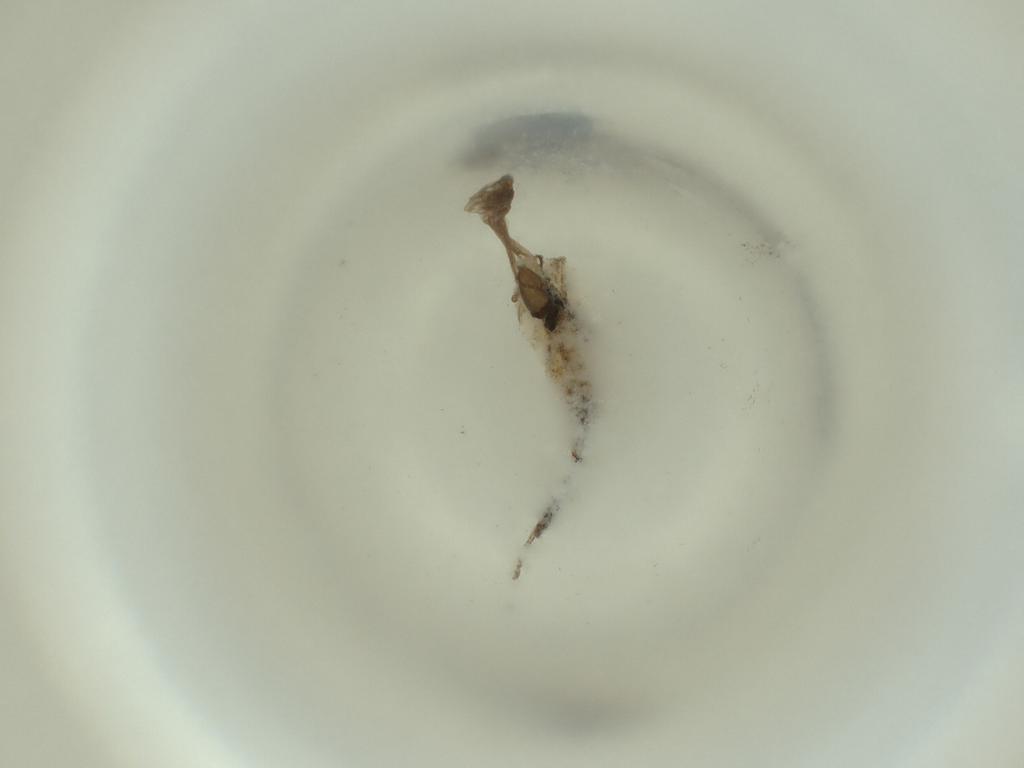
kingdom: Animalia
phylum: Arthropoda
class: Insecta
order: Diptera
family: Cecidomyiidae
